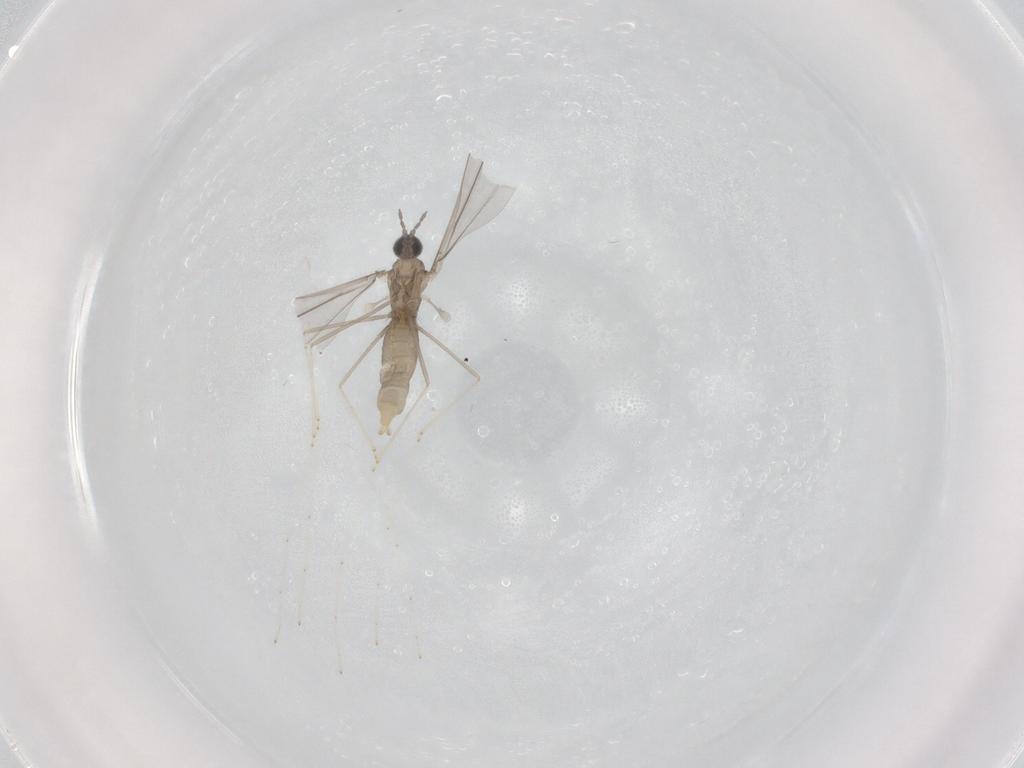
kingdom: Animalia
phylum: Arthropoda
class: Insecta
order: Diptera
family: Cecidomyiidae
